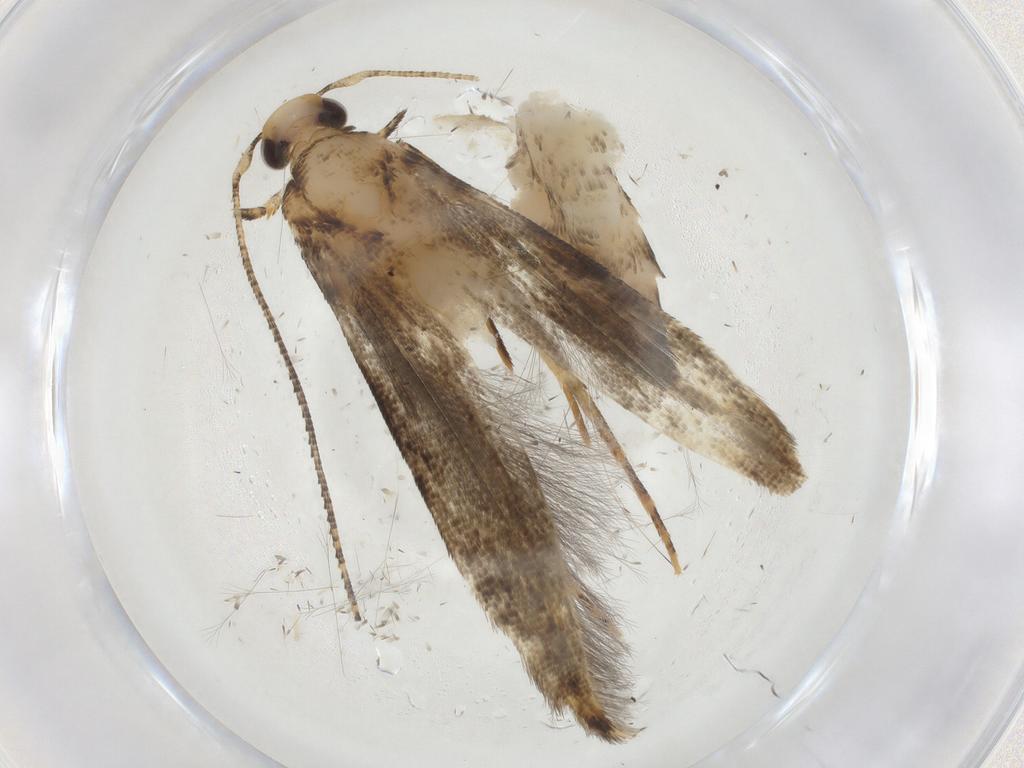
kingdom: Animalia
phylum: Arthropoda
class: Insecta
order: Lepidoptera
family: Blastobasidae
